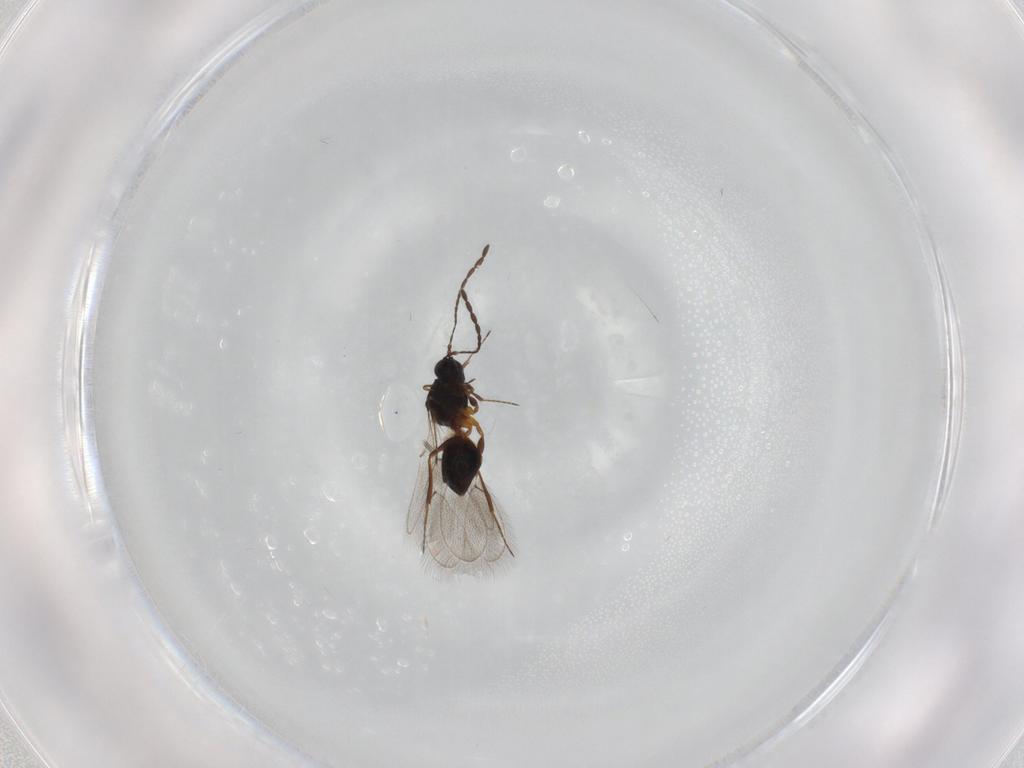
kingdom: Animalia
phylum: Arthropoda
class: Insecta
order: Hymenoptera
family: Figitidae
